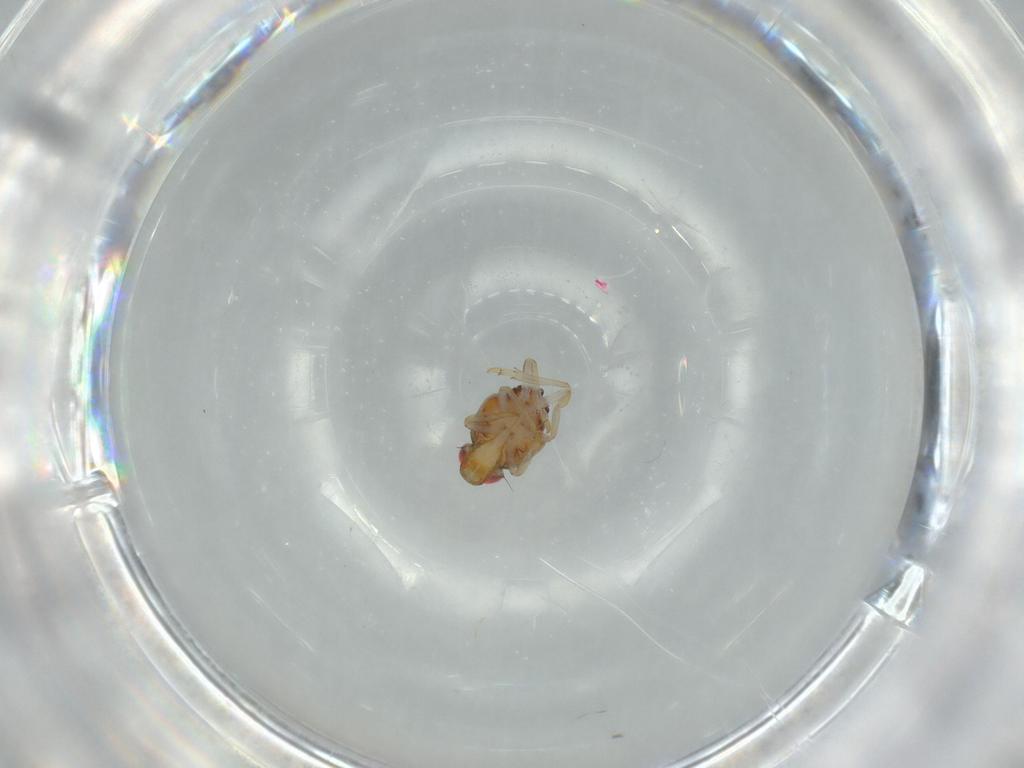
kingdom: Animalia
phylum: Arthropoda
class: Insecta
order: Hemiptera
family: Issidae
